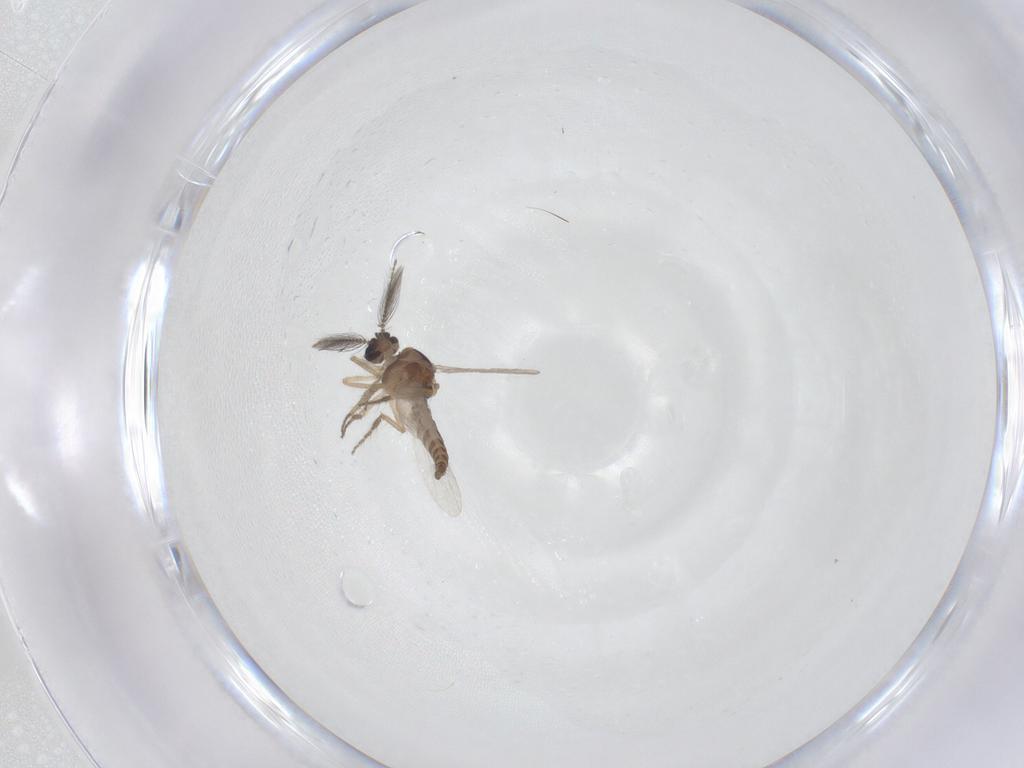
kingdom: Animalia
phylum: Arthropoda
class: Insecta
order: Diptera
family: Ceratopogonidae
